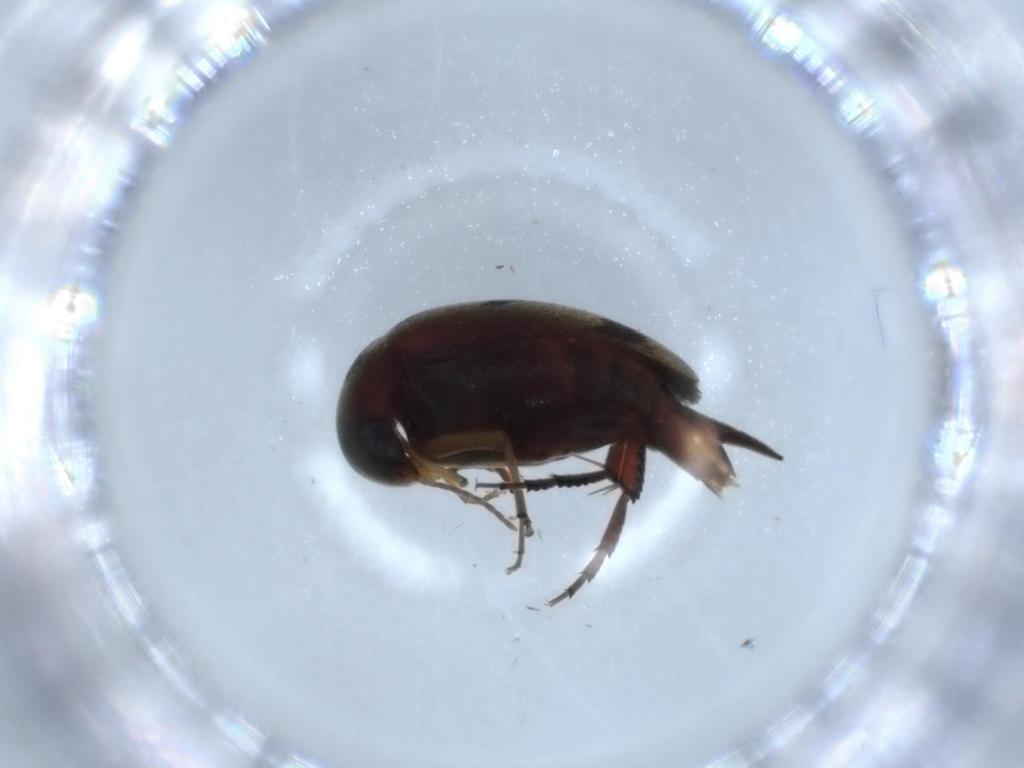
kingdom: Animalia
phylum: Arthropoda
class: Insecta
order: Coleoptera
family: Mordellidae
